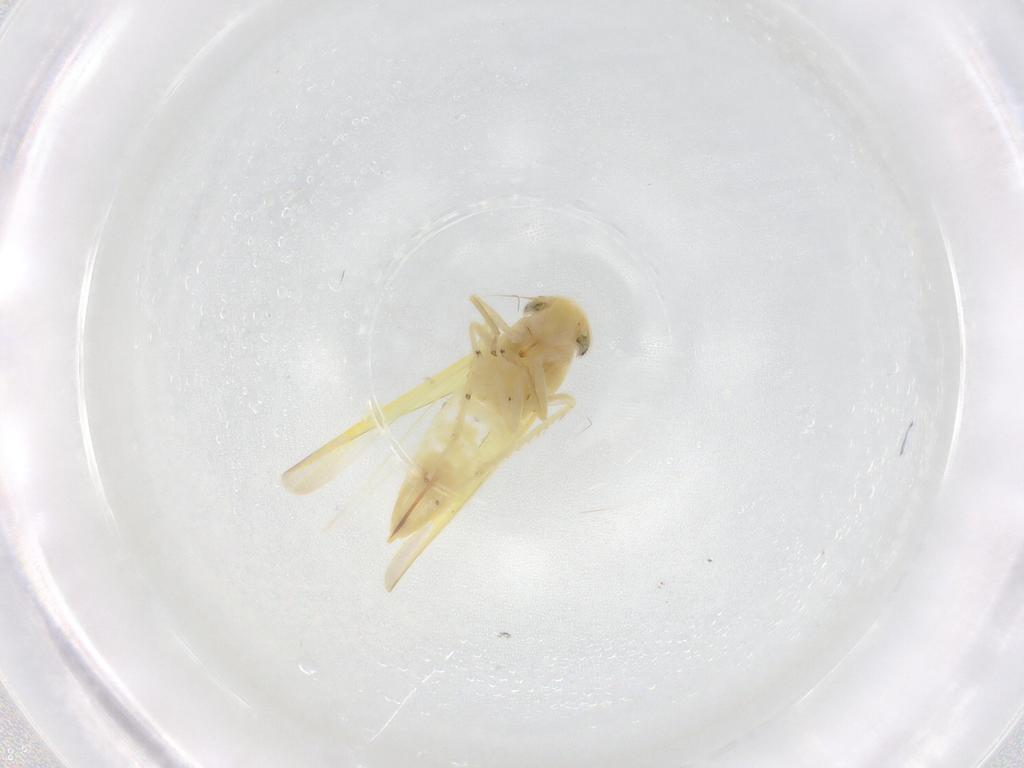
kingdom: Animalia
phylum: Arthropoda
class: Insecta
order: Hemiptera
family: Cicadellidae
